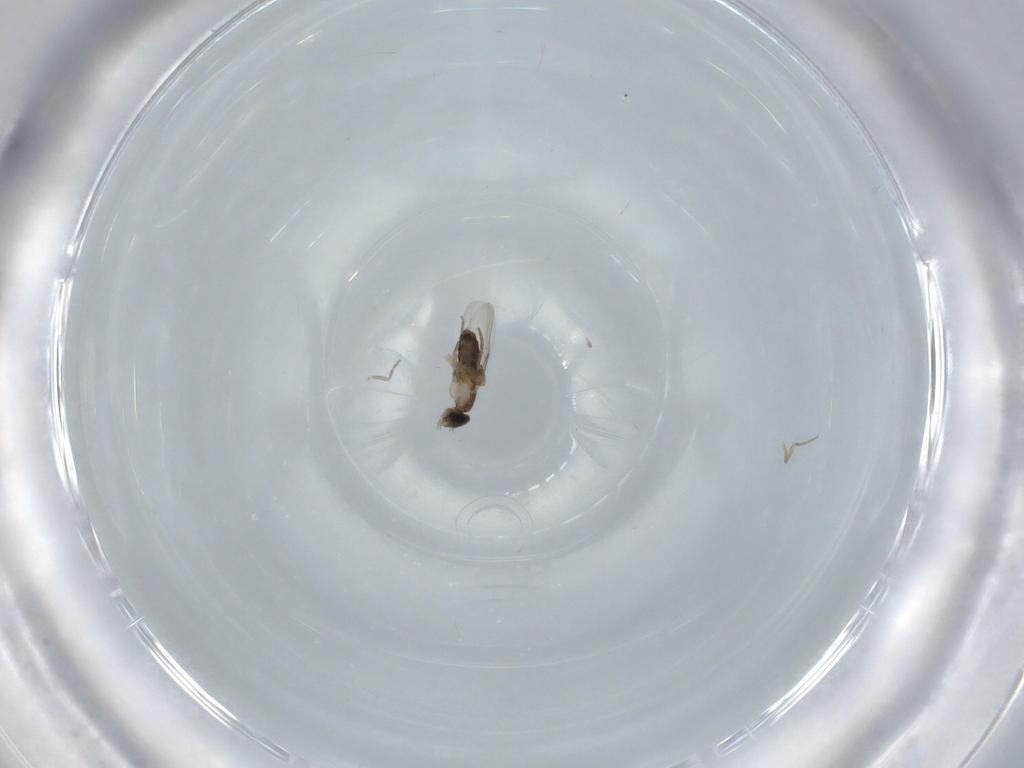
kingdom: Animalia
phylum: Arthropoda
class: Insecta
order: Diptera
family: Phoridae
